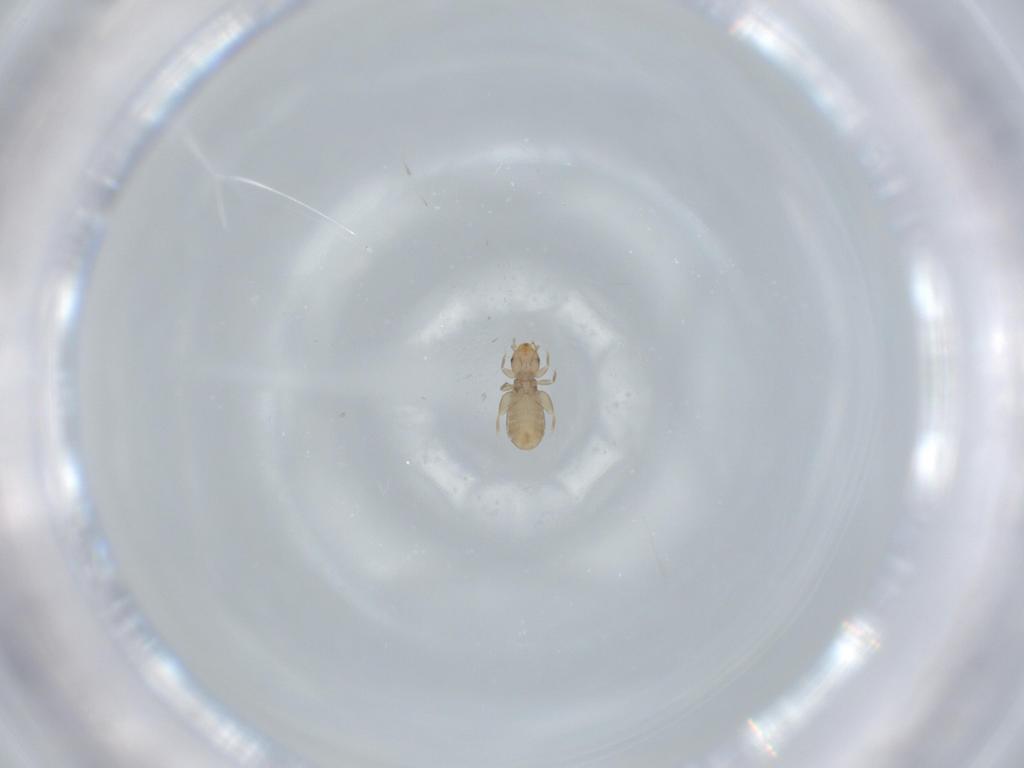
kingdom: Animalia
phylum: Arthropoda
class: Insecta
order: Psocodea
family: Liposcelididae
